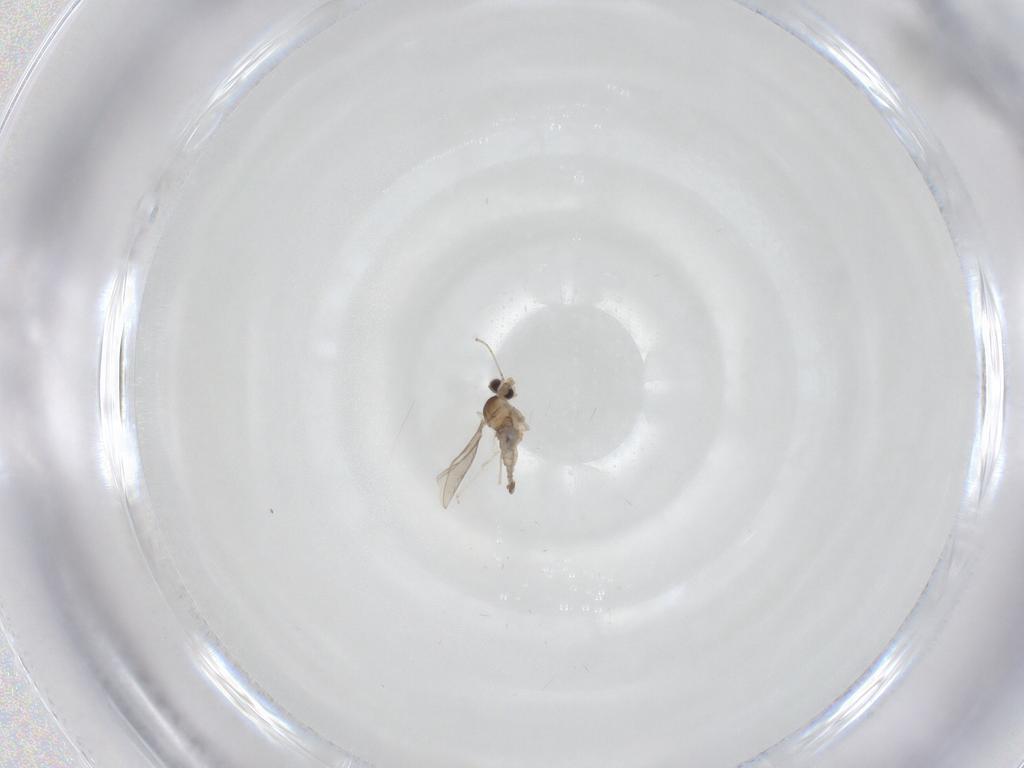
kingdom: Animalia
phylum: Arthropoda
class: Insecta
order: Diptera
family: Cecidomyiidae
